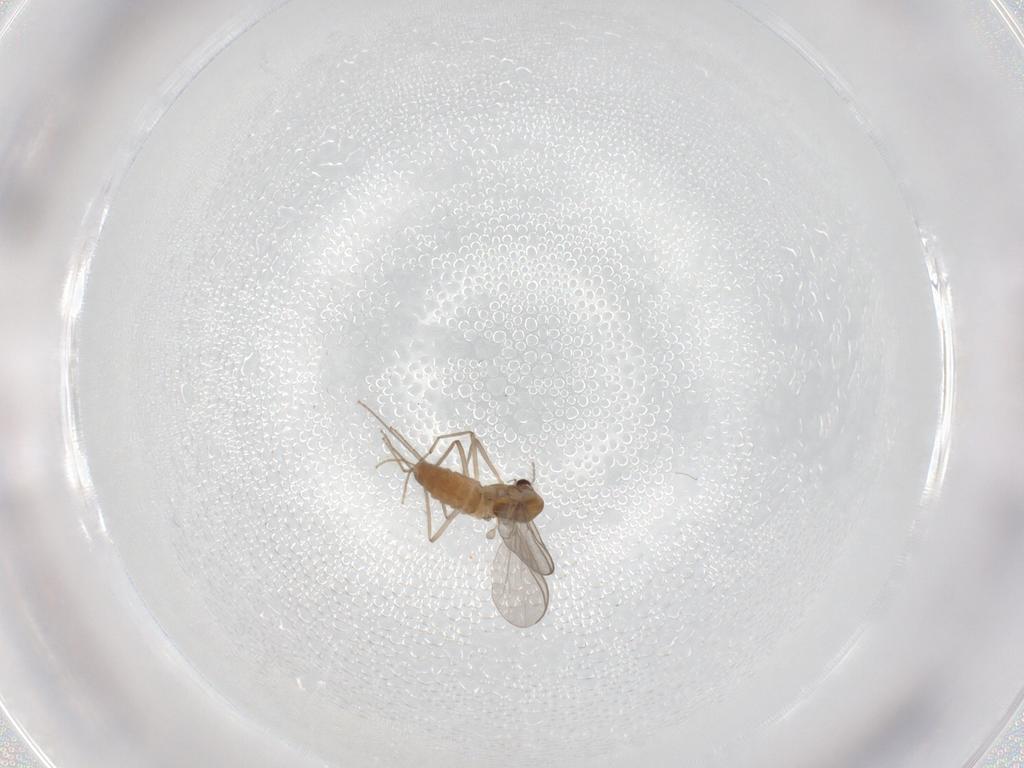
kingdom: Animalia
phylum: Arthropoda
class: Insecta
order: Diptera
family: Chironomidae
